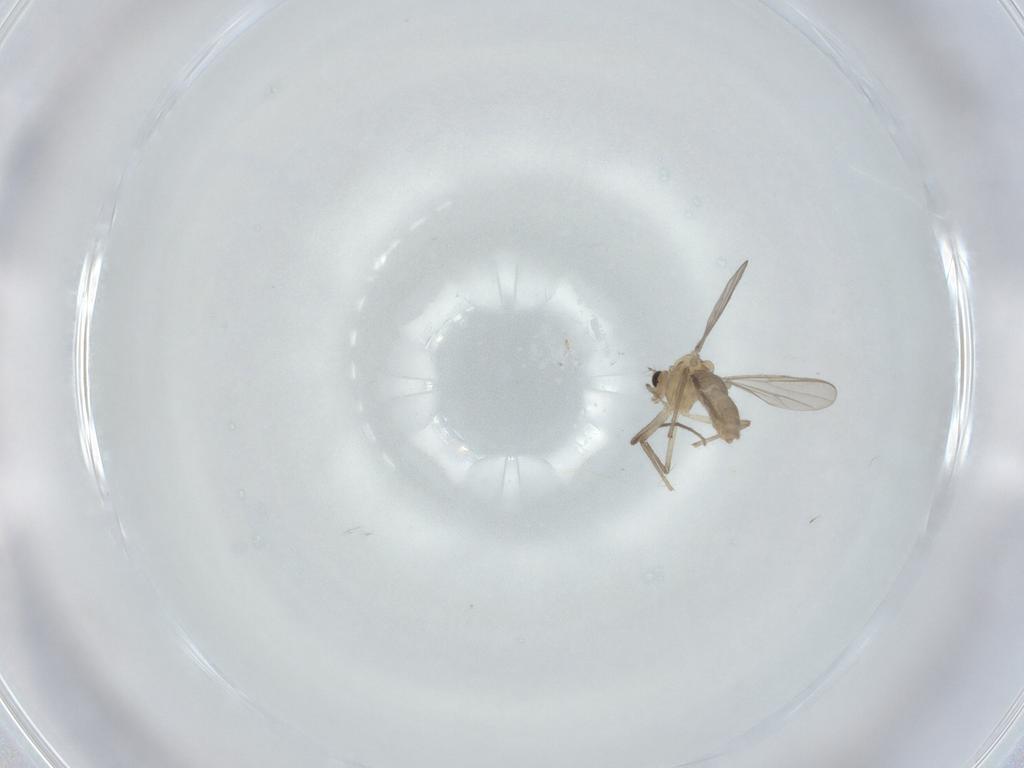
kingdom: Animalia
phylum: Arthropoda
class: Insecta
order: Diptera
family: Chironomidae
